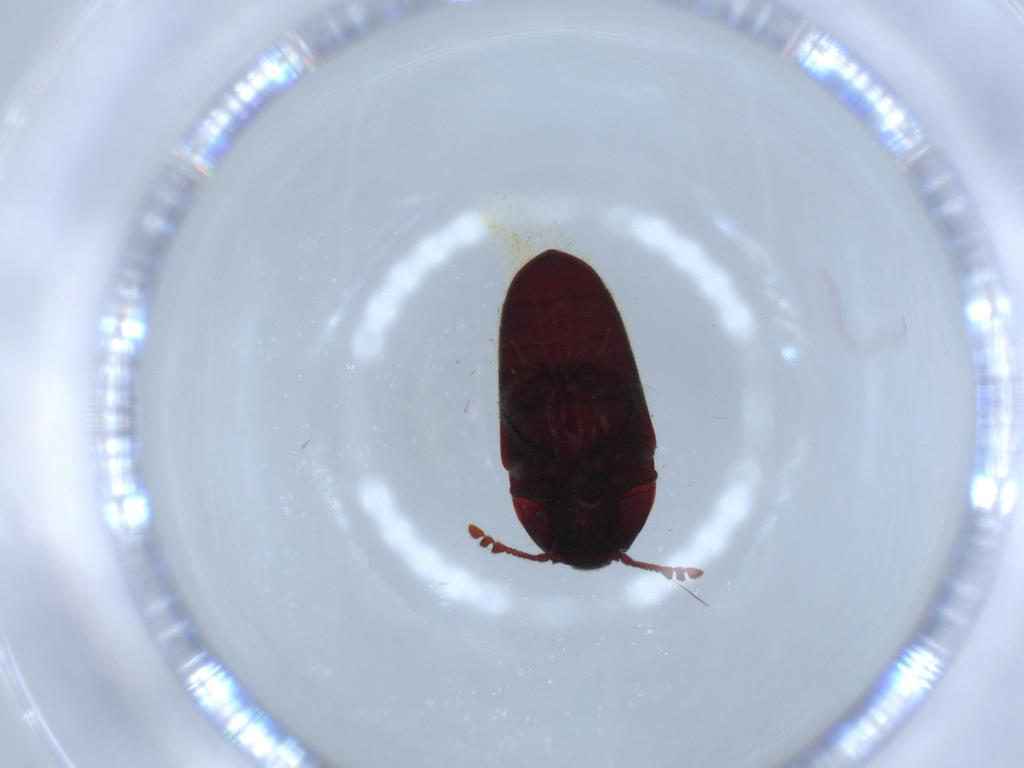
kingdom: Animalia
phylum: Arthropoda
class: Insecta
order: Coleoptera
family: Throscidae
